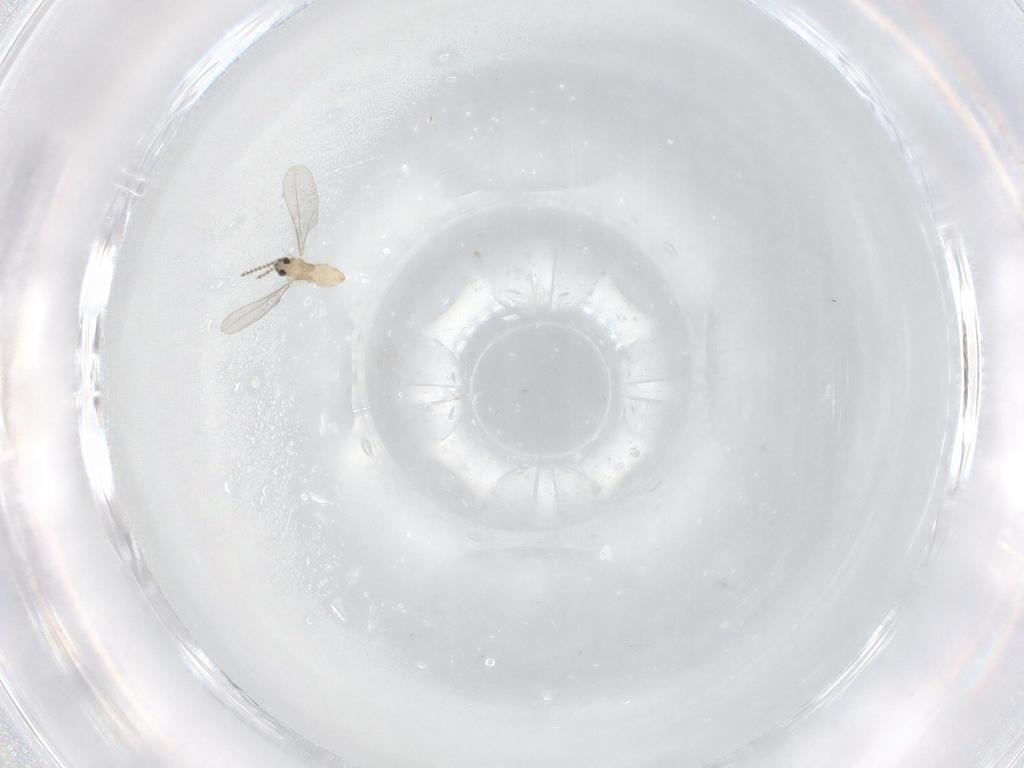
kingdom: Animalia
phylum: Arthropoda
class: Insecta
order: Diptera
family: Cecidomyiidae
